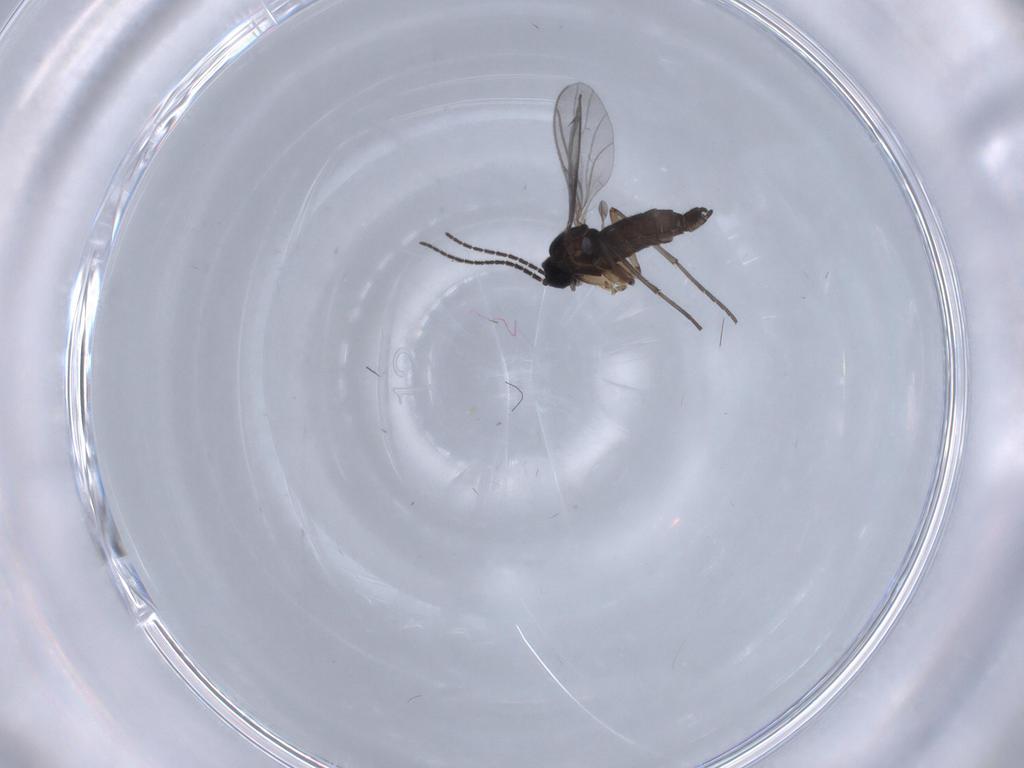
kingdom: Animalia
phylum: Arthropoda
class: Insecta
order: Diptera
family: Sciaridae
